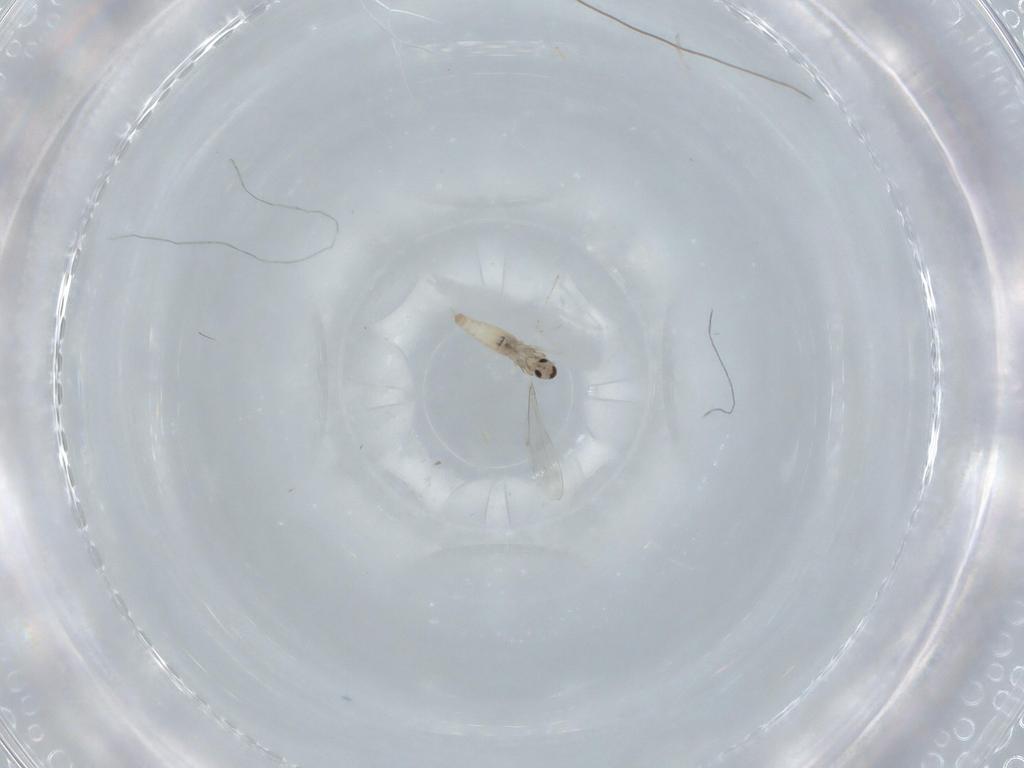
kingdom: Animalia
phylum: Arthropoda
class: Insecta
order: Diptera
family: Cecidomyiidae
